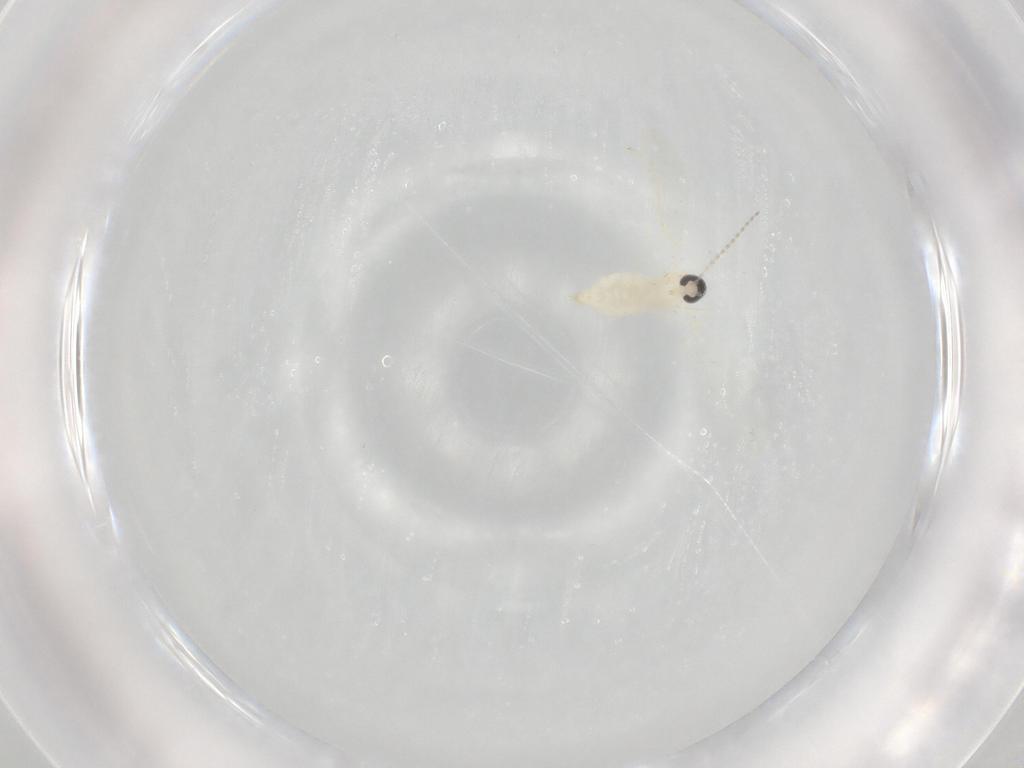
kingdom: Animalia
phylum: Arthropoda
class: Insecta
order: Diptera
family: Cecidomyiidae
